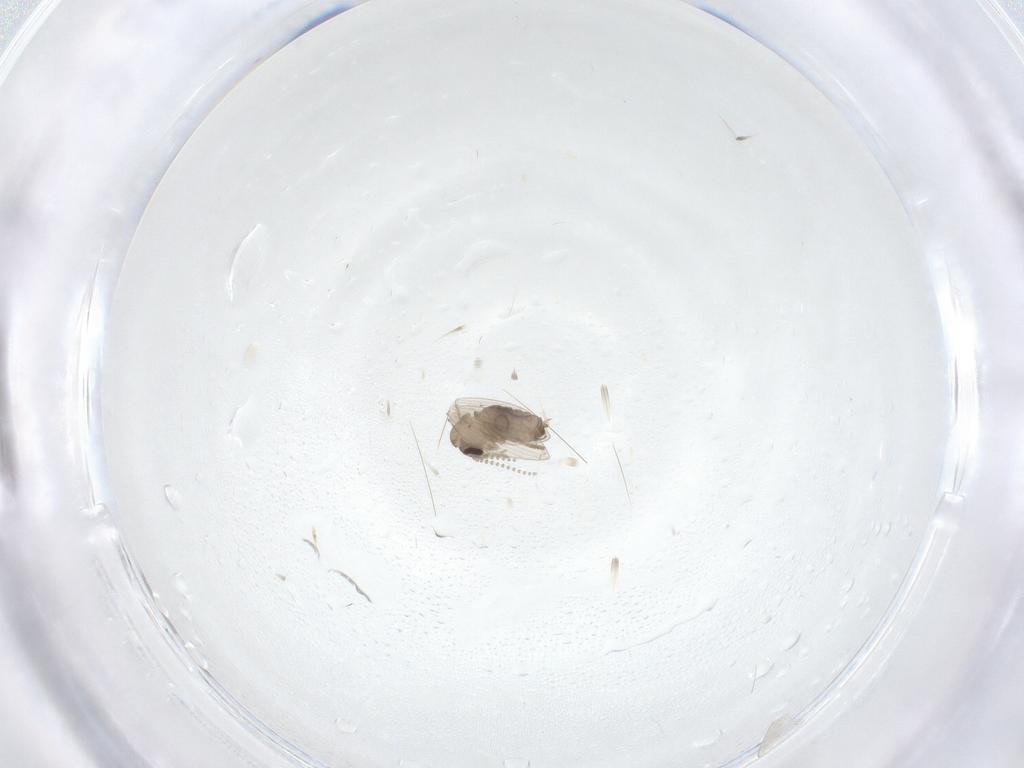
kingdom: Animalia
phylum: Arthropoda
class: Insecta
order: Diptera
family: Psychodidae
